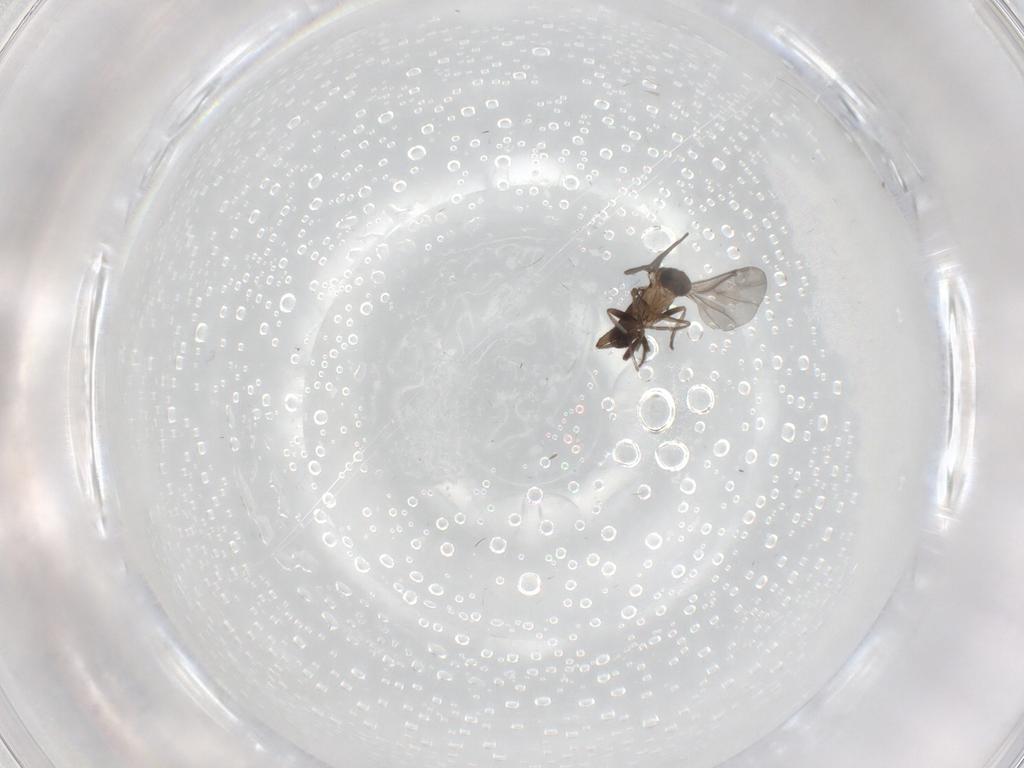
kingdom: Animalia
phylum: Arthropoda
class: Insecta
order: Diptera
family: Phoridae
